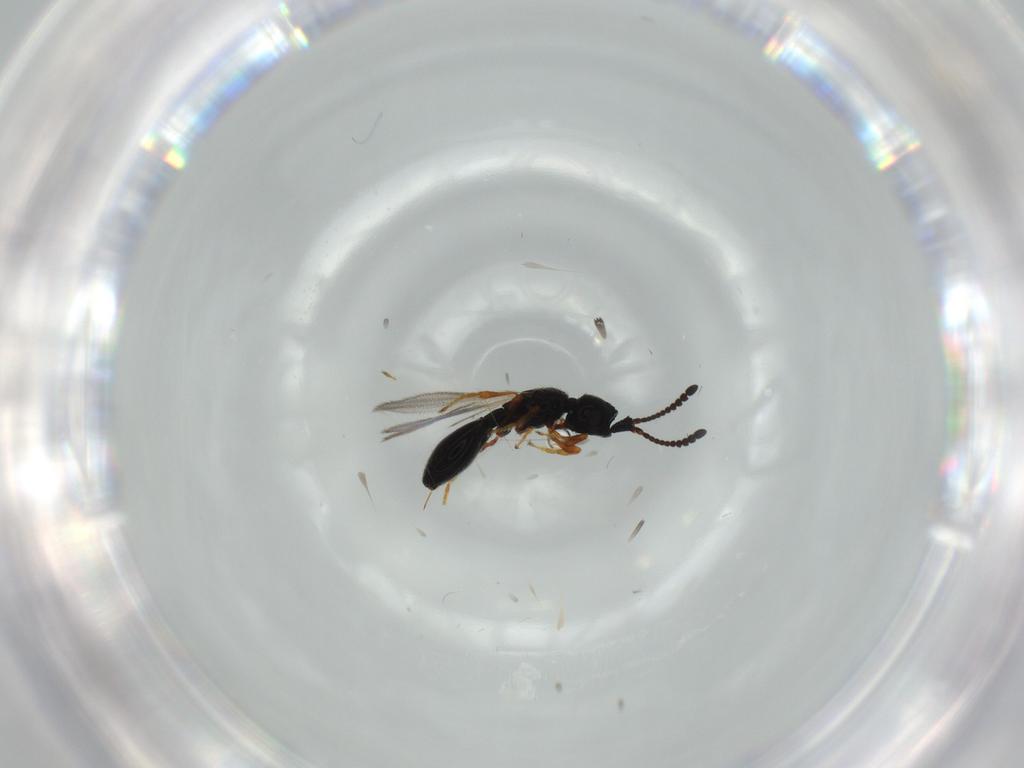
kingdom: Animalia
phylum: Arthropoda
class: Insecta
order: Hymenoptera
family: Diapriidae
